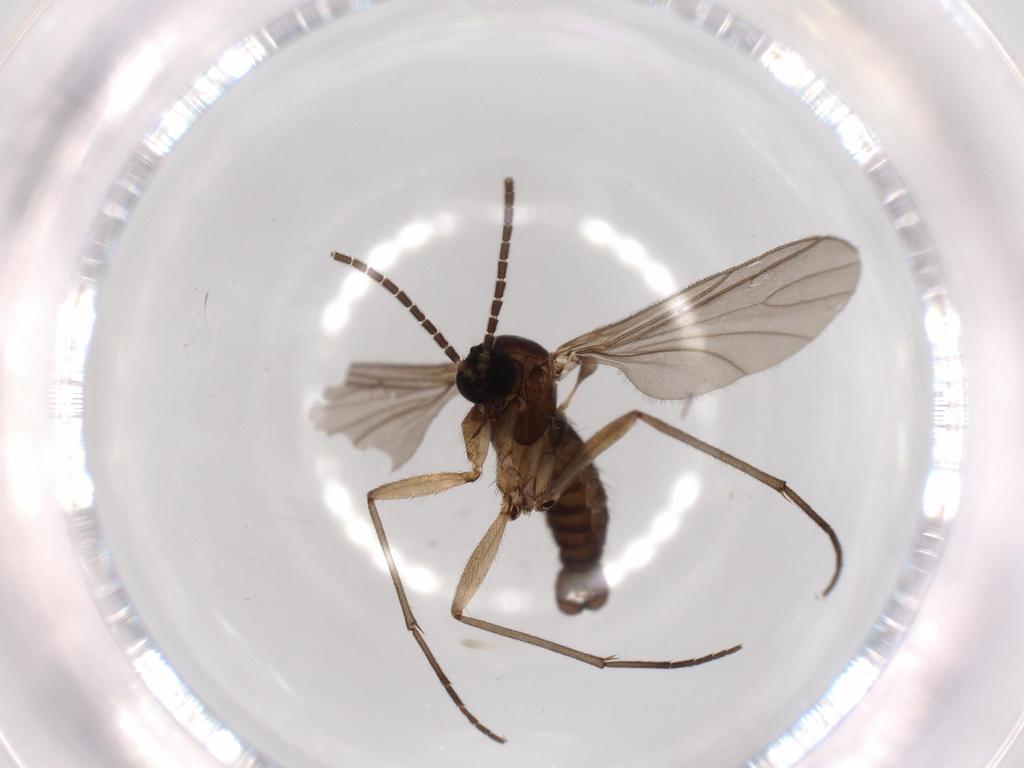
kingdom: Animalia
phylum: Arthropoda
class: Insecta
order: Diptera
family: Sciaridae
